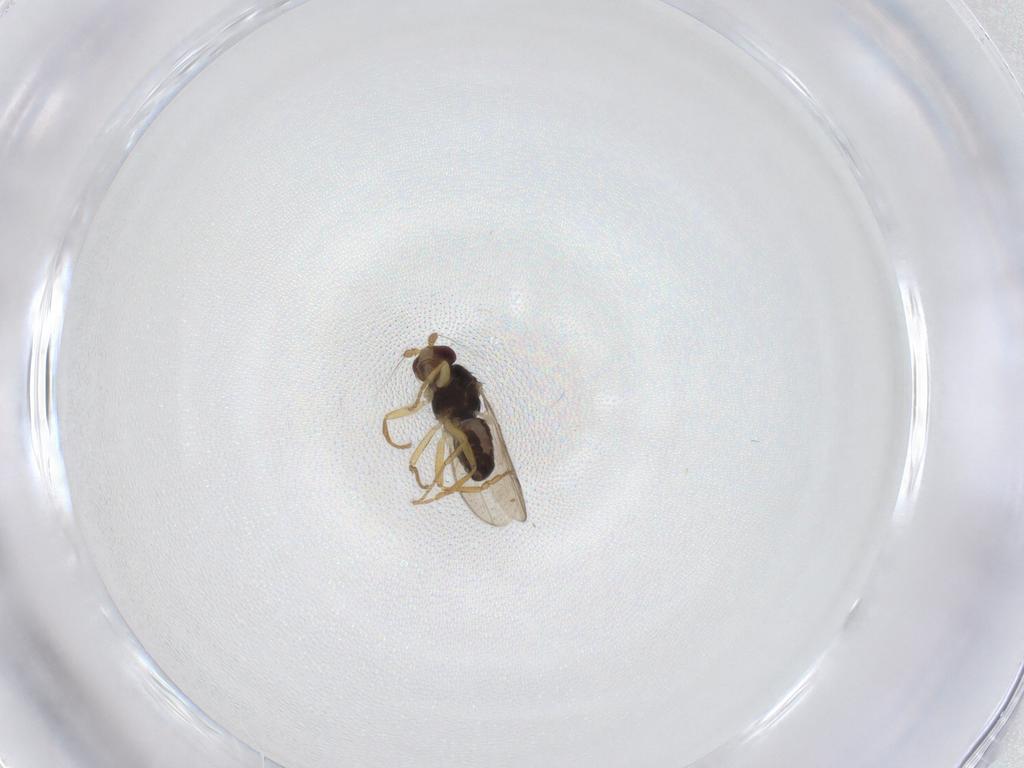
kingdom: Animalia
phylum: Arthropoda
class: Insecta
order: Diptera
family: Sphaeroceridae
